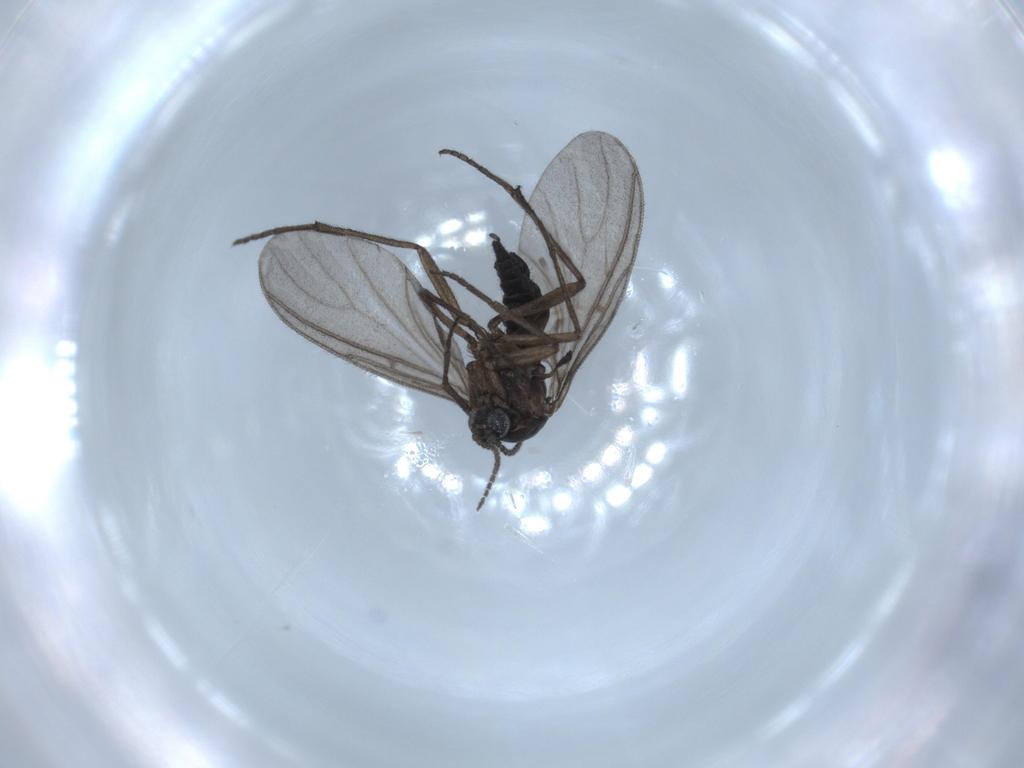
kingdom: Animalia
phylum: Arthropoda
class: Insecta
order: Diptera
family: Sciaridae
